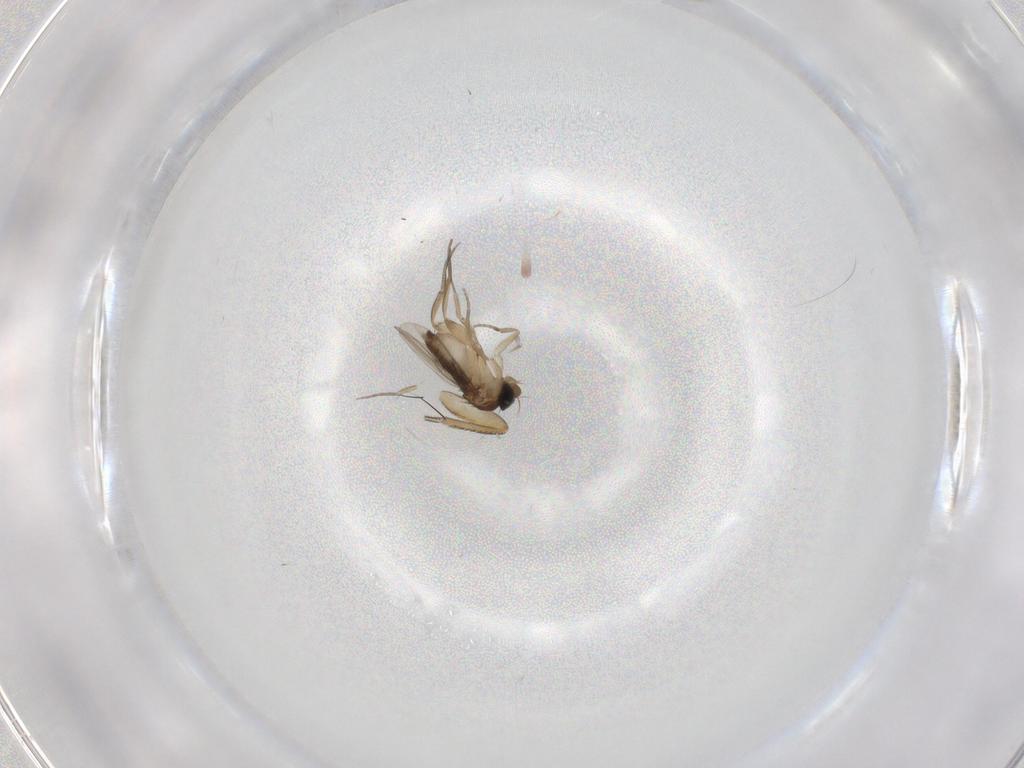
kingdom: Animalia
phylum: Arthropoda
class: Insecta
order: Diptera
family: Phoridae
